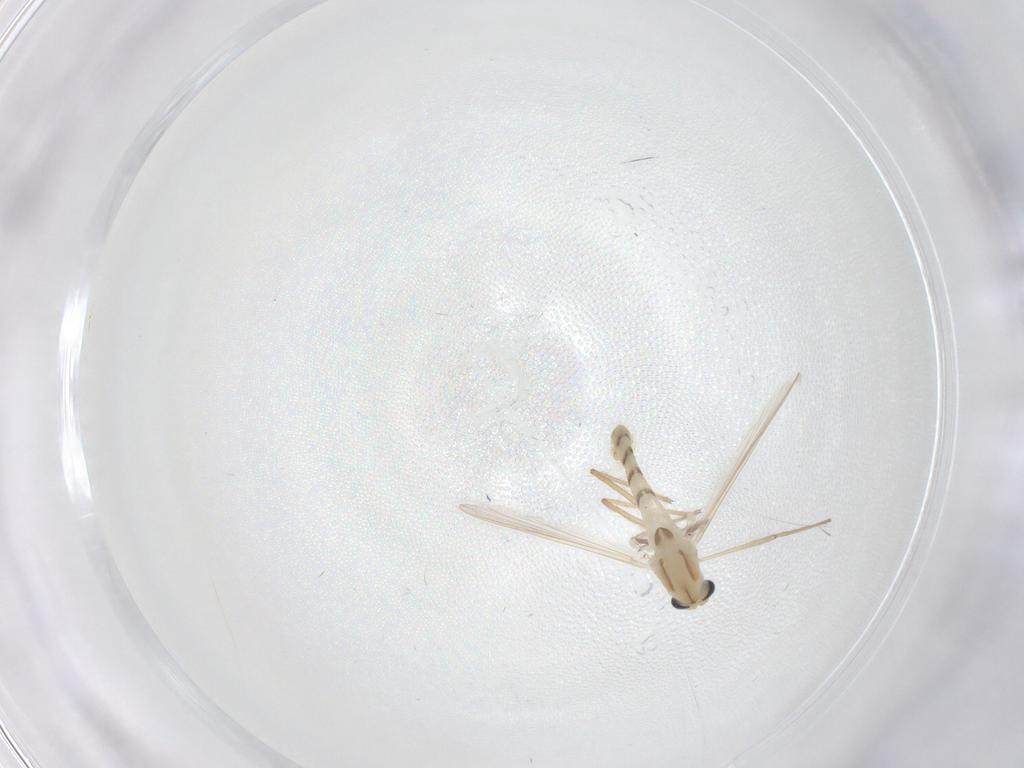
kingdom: Animalia
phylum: Arthropoda
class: Insecta
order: Diptera
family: Chironomidae
